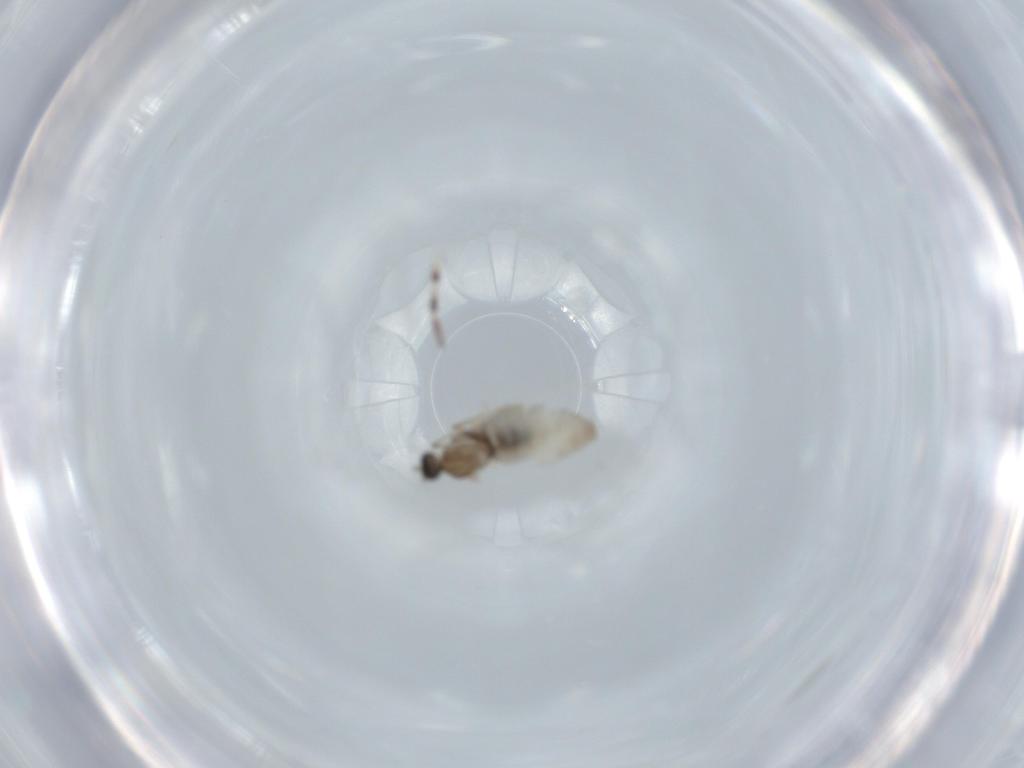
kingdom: Animalia
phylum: Arthropoda
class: Insecta
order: Diptera
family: Cecidomyiidae
